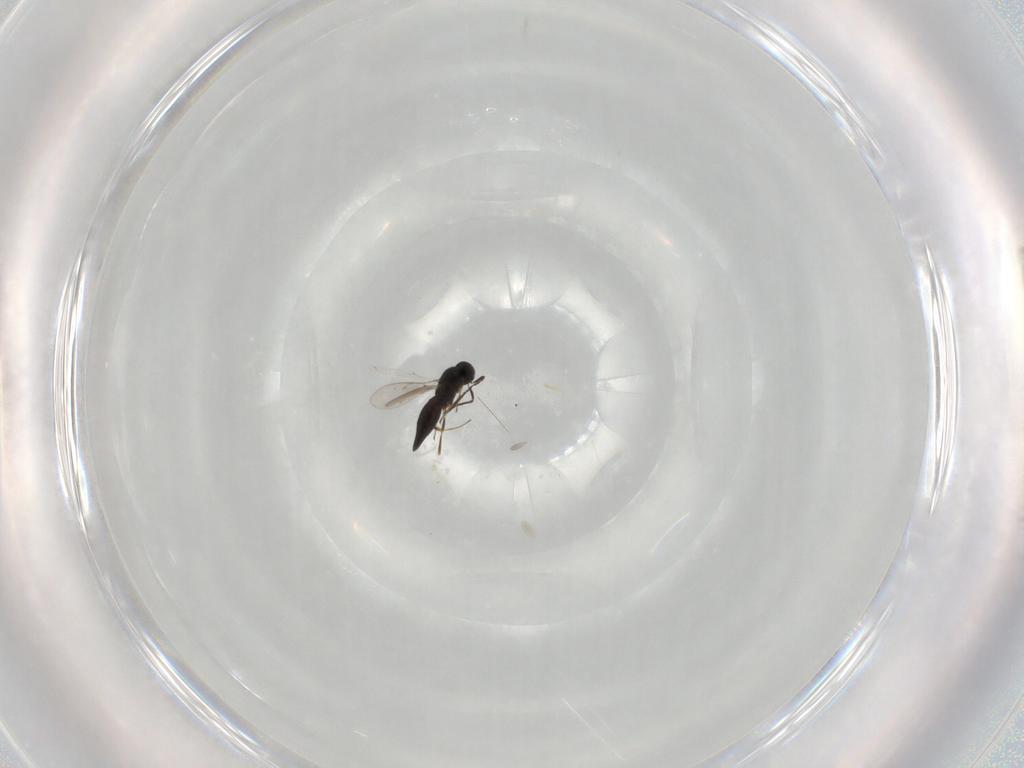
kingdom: Animalia
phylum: Arthropoda
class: Insecta
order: Hymenoptera
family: Scelionidae
